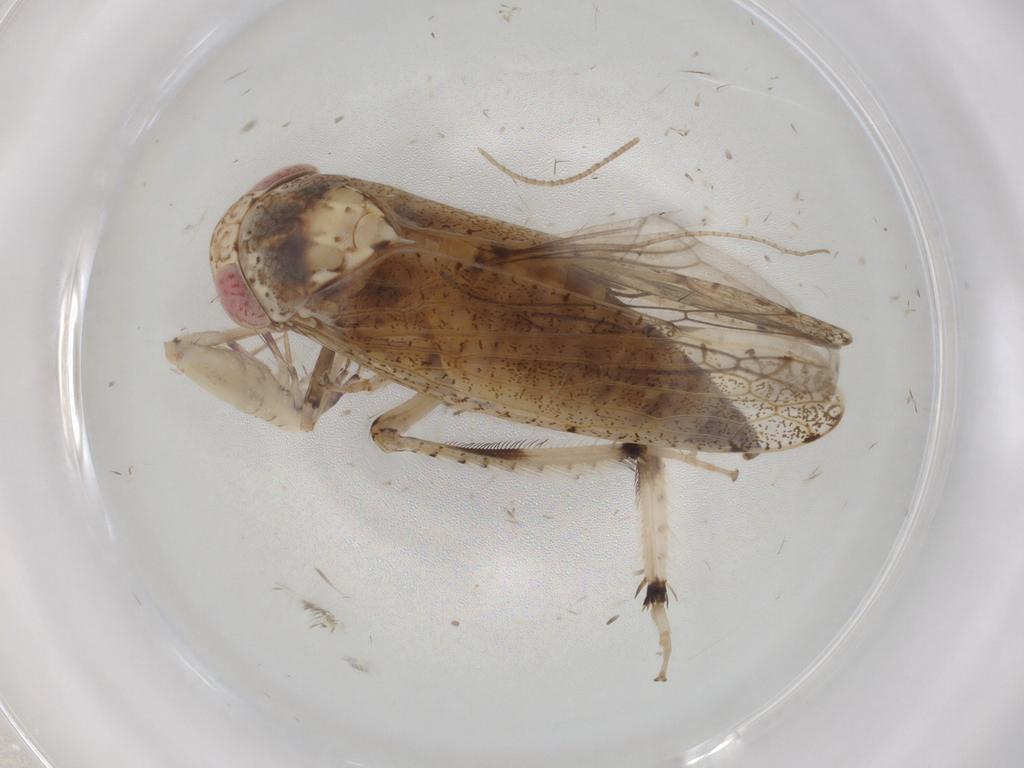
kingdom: Animalia
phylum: Arthropoda
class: Insecta
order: Hemiptera
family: Cicadellidae
